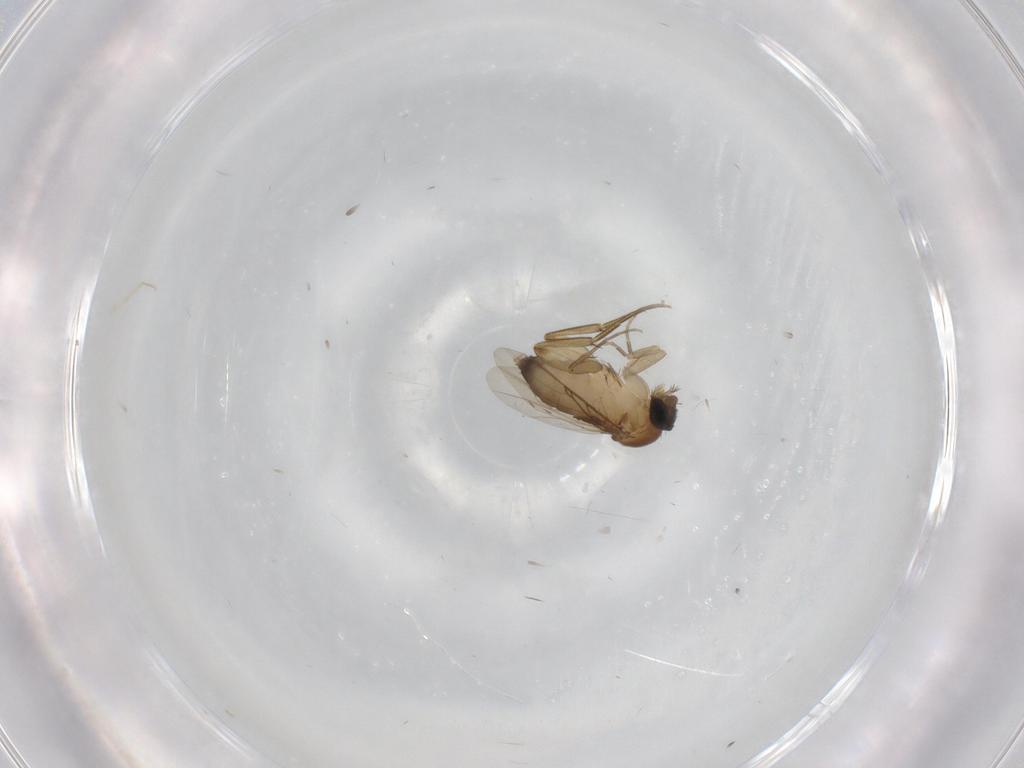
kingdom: Animalia
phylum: Arthropoda
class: Insecta
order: Diptera
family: Phoridae
